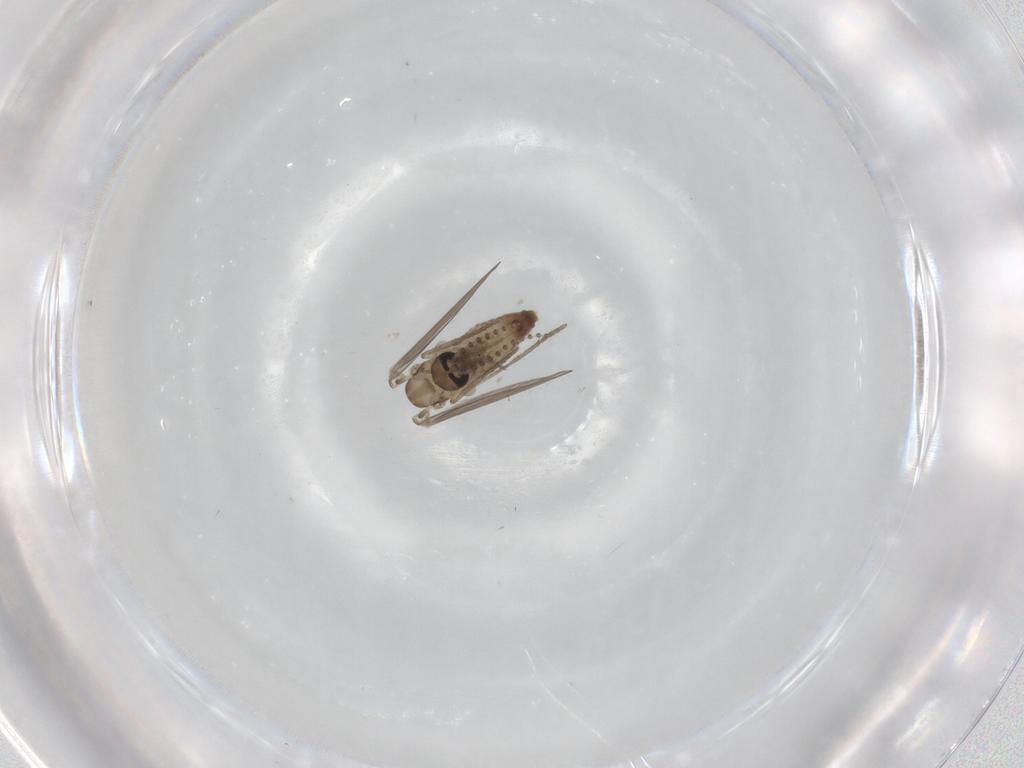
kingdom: Animalia
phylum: Arthropoda
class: Insecta
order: Diptera
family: Psychodidae
